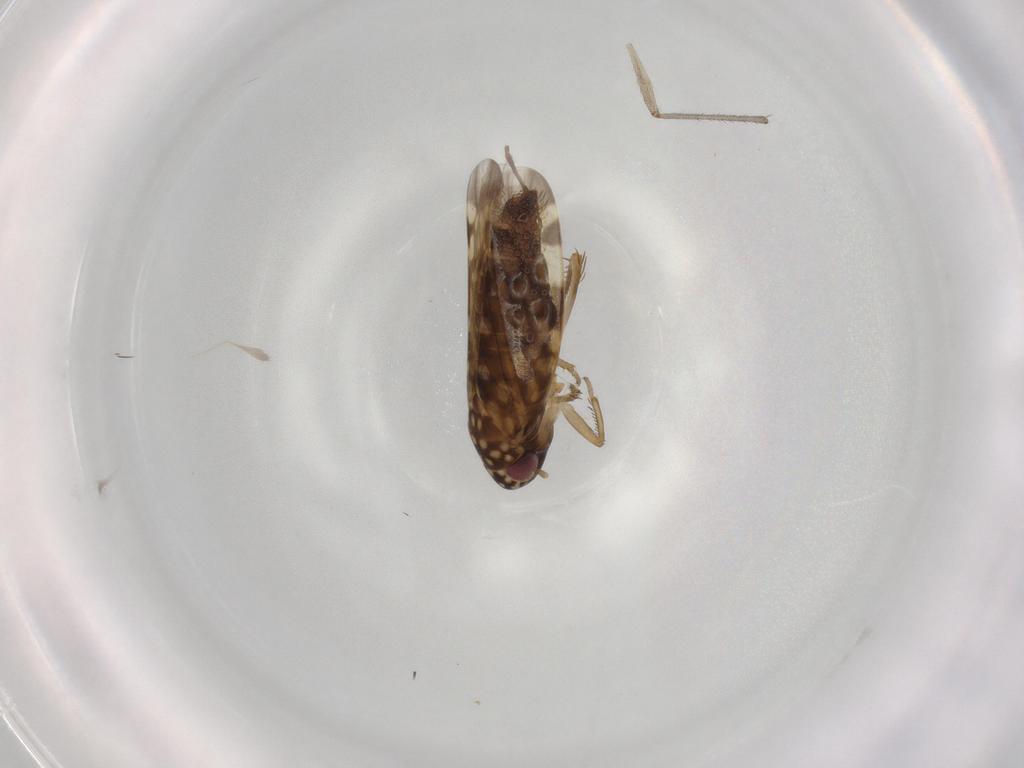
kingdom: Animalia
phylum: Arthropoda
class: Insecta
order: Hemiptera
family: Cicadellidae
